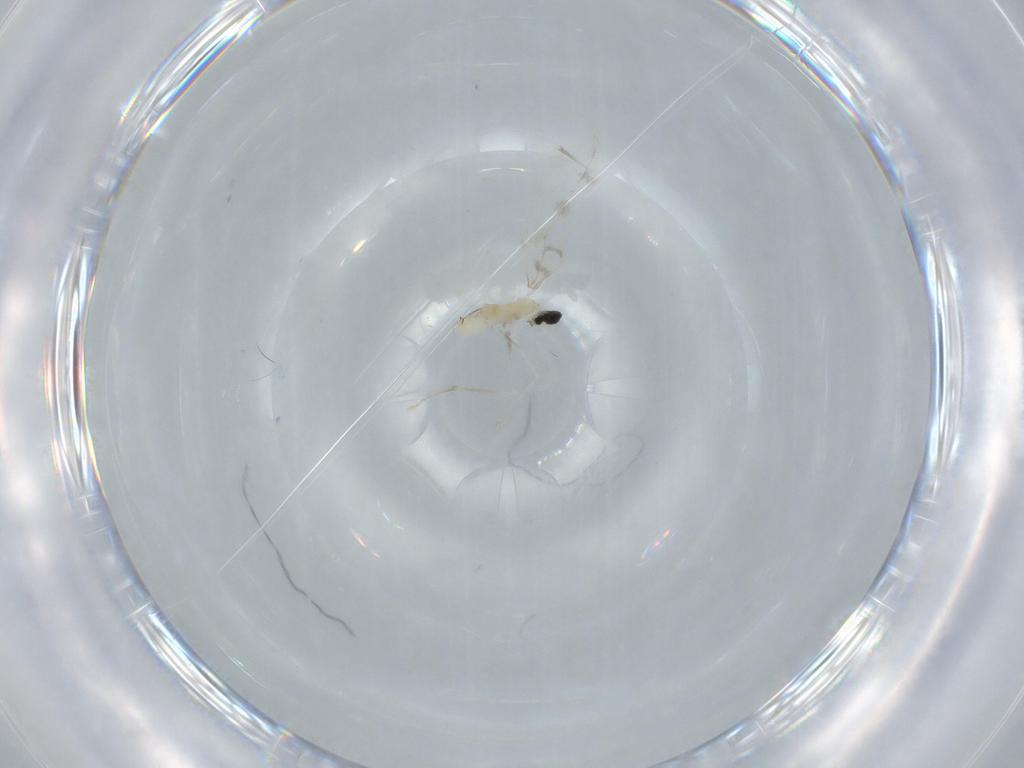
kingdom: Animalia
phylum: Arthropoda
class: Insecta
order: Diptera
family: Cecidomyiidae
